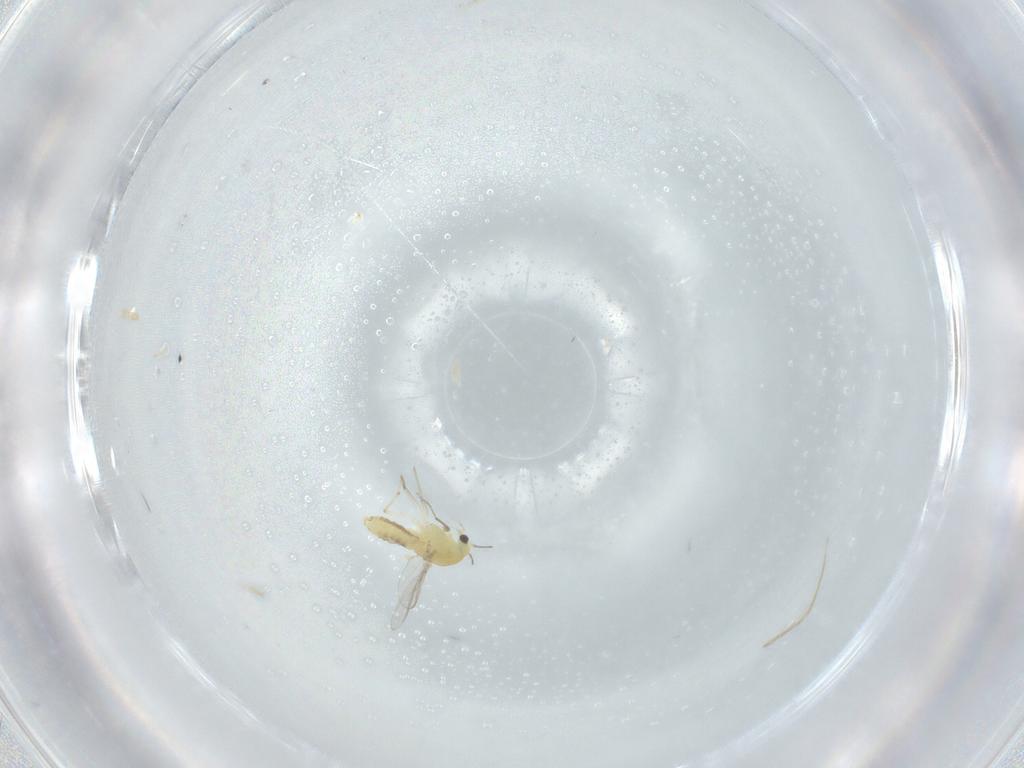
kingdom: Animalia
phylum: Arthropoda
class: Insecta
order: Diptera
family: Chironomidae
